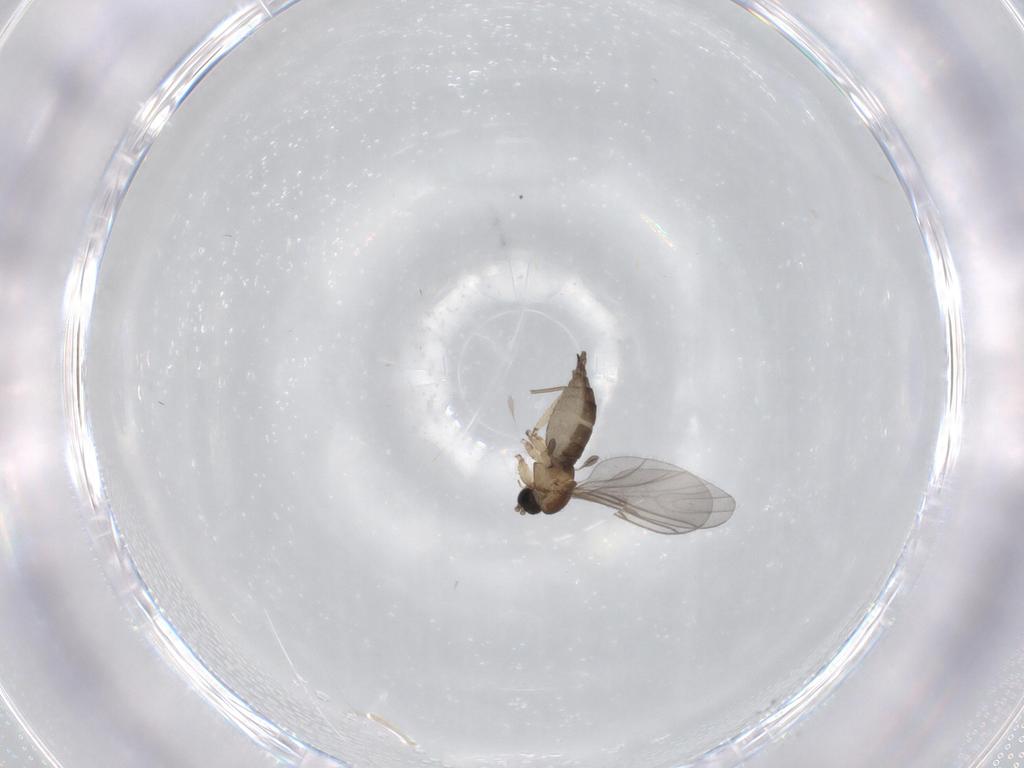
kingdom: Animalia
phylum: Arthropoda
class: Insecta
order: Diptera
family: Sciaridae
